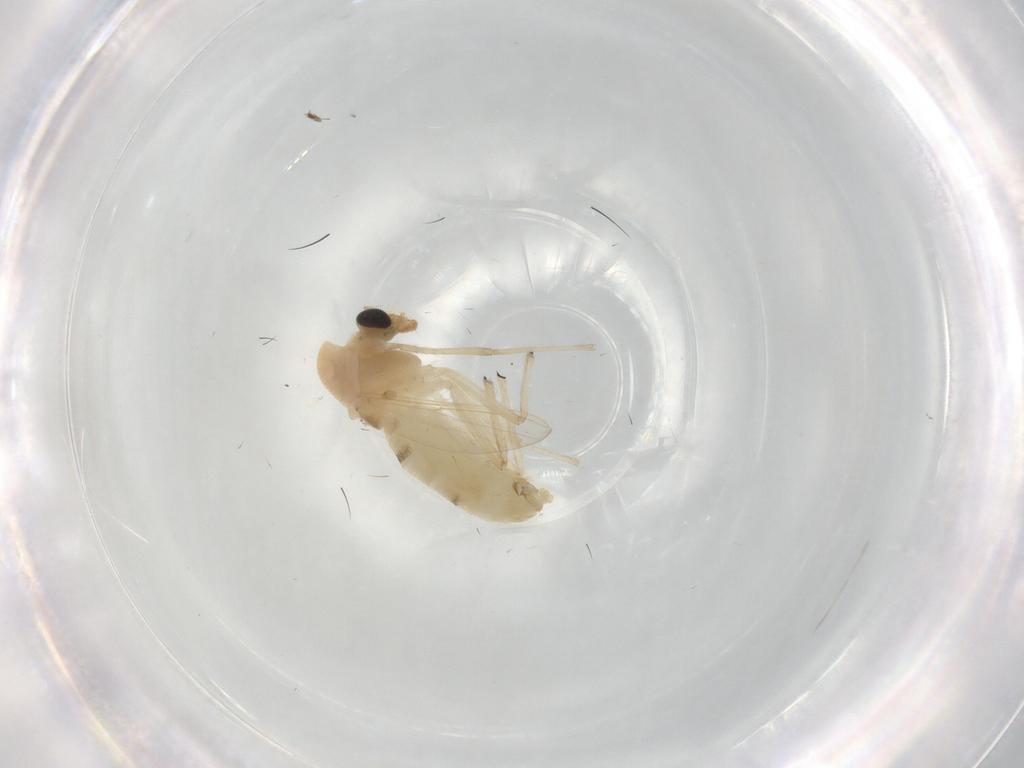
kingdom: Animalia
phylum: Arthropoda
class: Insecta
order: Diptera
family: Chironomidae
